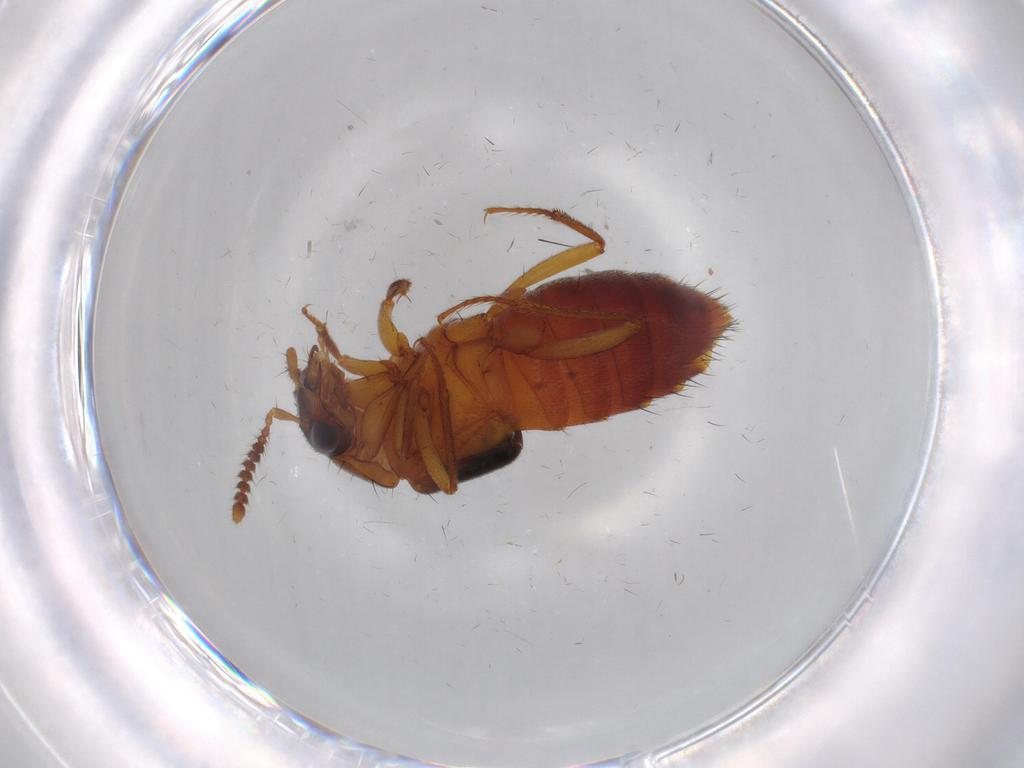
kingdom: Animalia
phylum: Arthropoda
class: Insecta
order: Coleoptera
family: Staphylinidae
